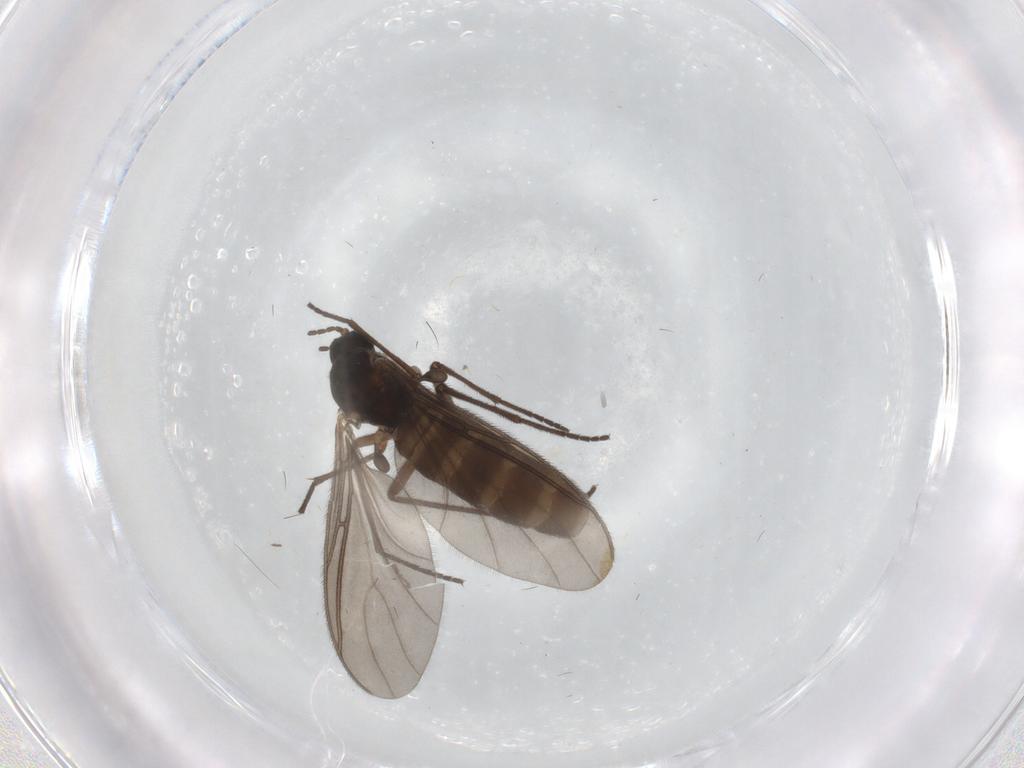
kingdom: Animalia
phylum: Arthropoda
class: Insecta
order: Diptera
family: Sciaridae
